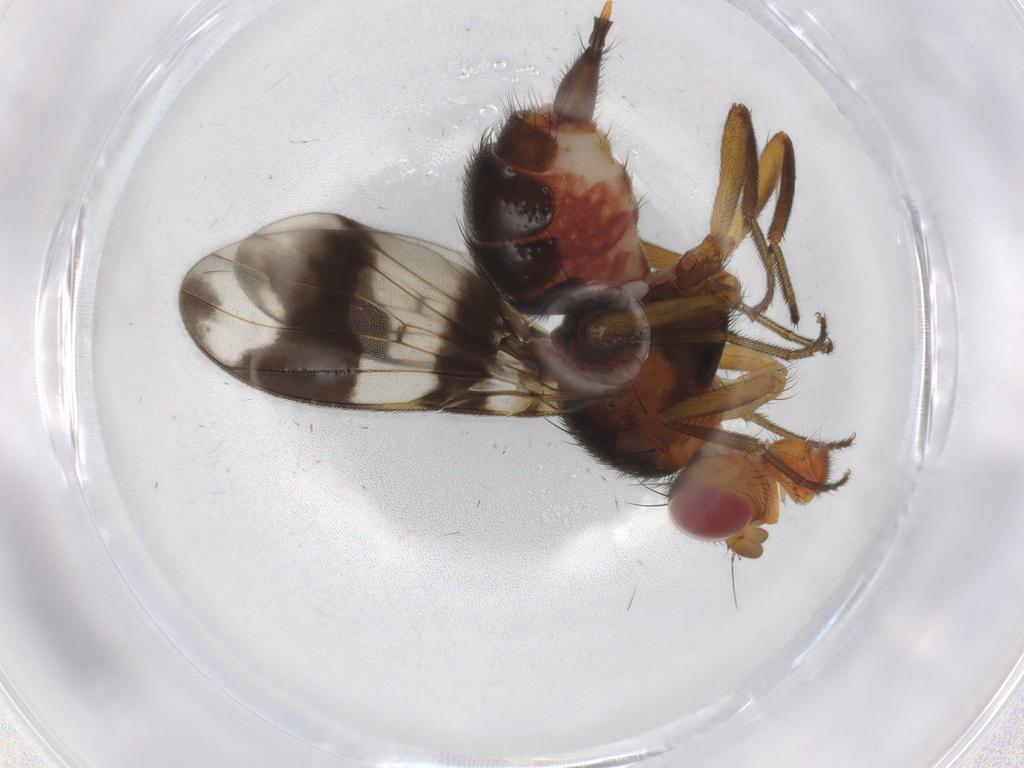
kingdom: Animalia
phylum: Arthropoda
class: Insecta
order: Diptera
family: Richardiidae
